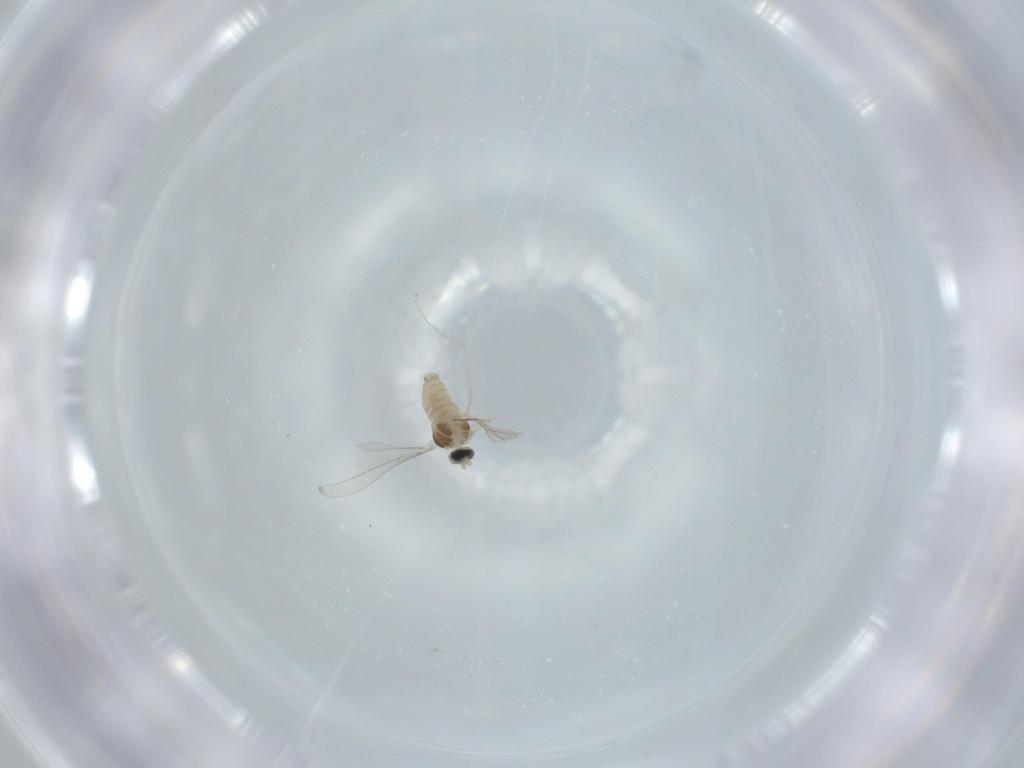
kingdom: Animalia
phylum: Arthropoda
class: Insecta
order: Diptera
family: Cecidomyiidae
